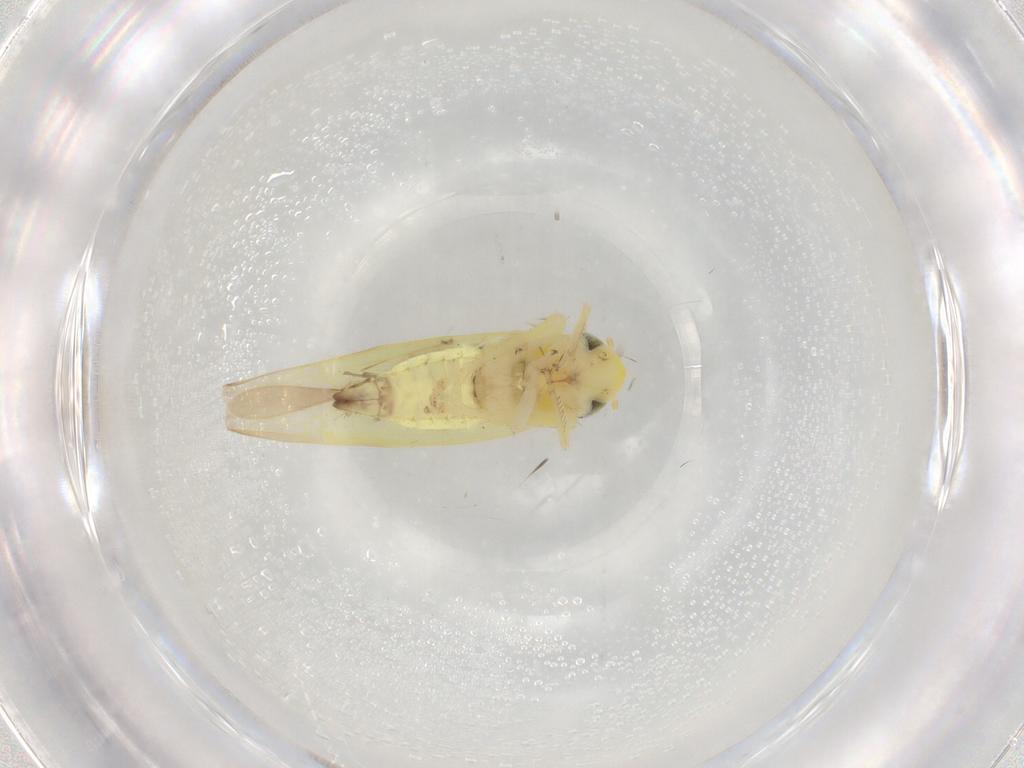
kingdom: Animalia
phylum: Arthropoda
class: Insecta
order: Hemiptera
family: Cicadellidae
